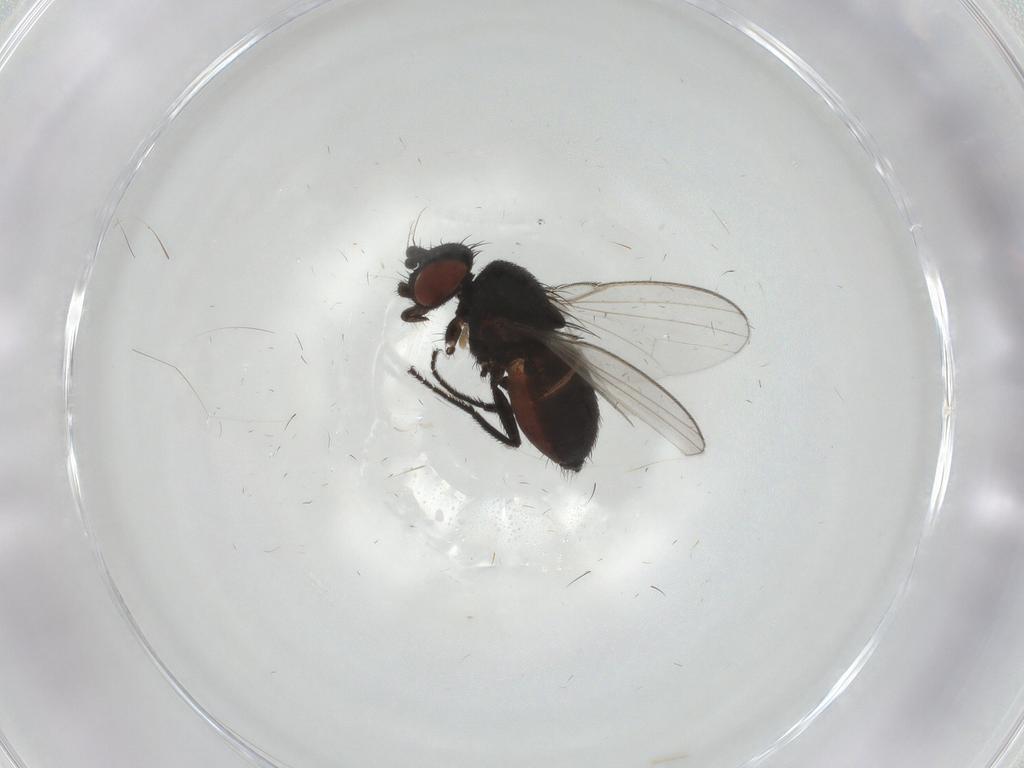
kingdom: Animalia
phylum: Arthropoda
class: Insecta
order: Diptera
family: Milichiidae
